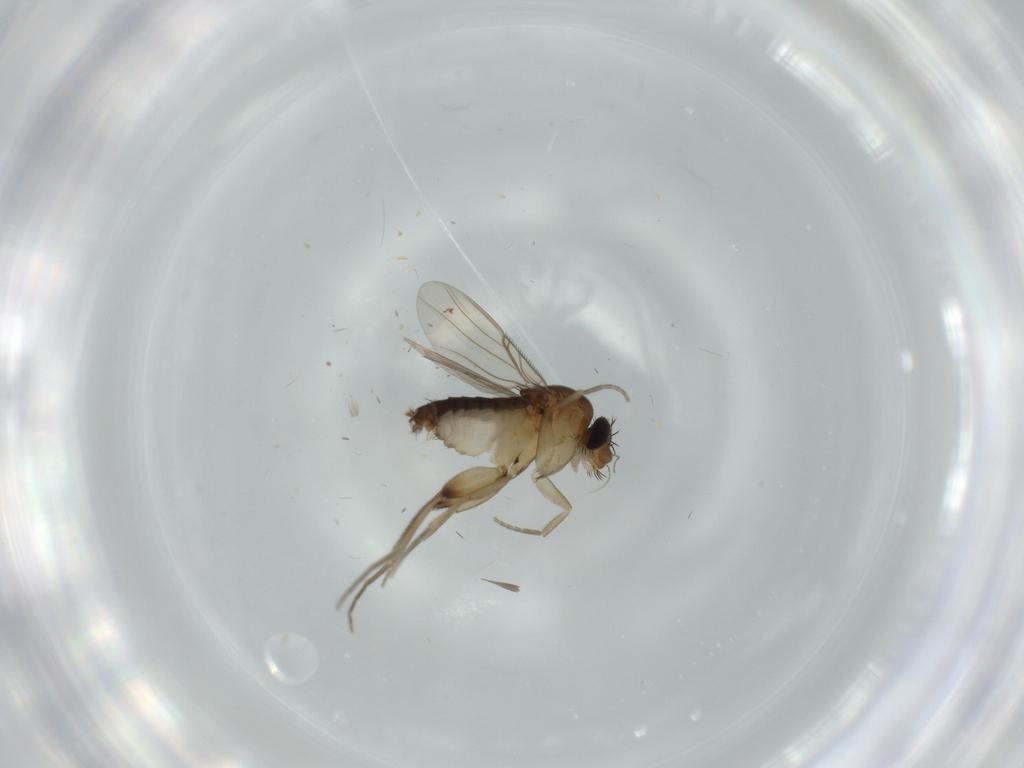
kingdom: Animalia
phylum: Arthropoda
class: Insecta
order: Diptera
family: Phoridae
